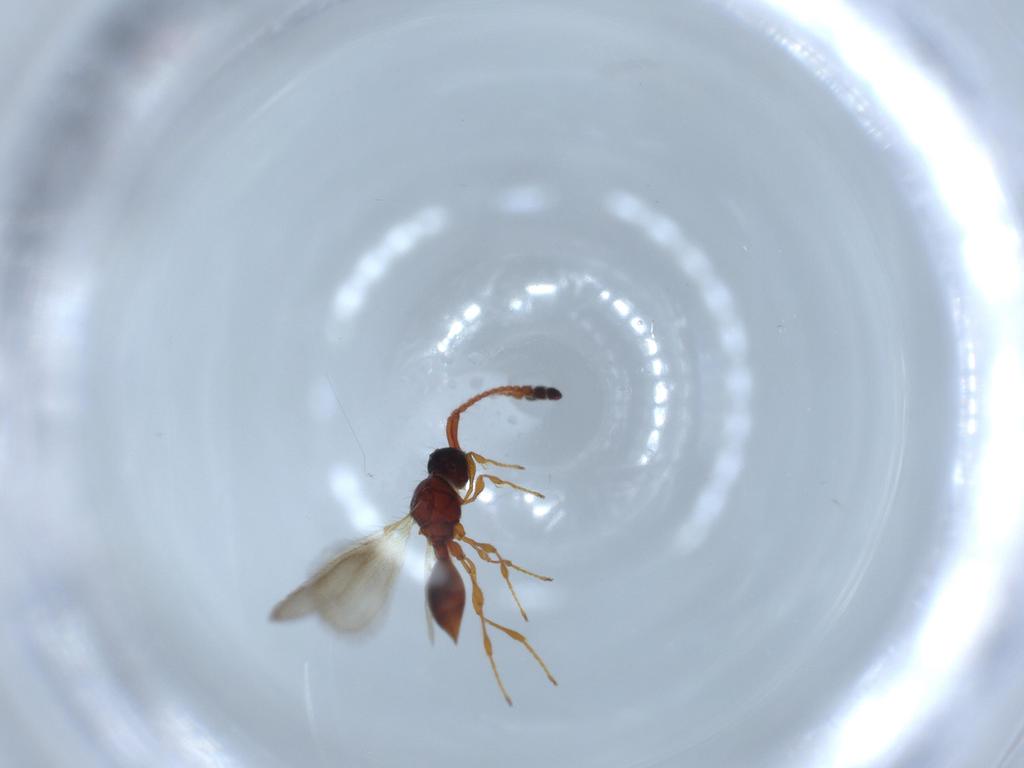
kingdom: Animalia
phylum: Arthropoda
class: Insecta
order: Hymenoptera
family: Diapriidae
